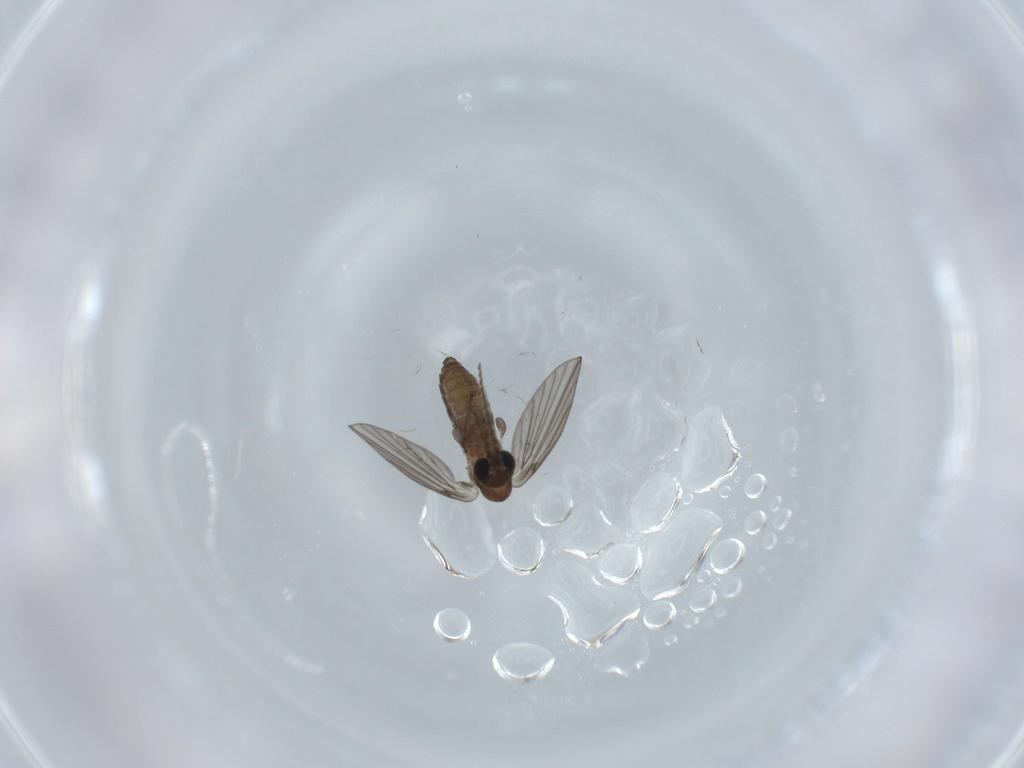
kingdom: Animalia
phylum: Arthropoda
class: Insecta
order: Diptera
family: Psychodidae
